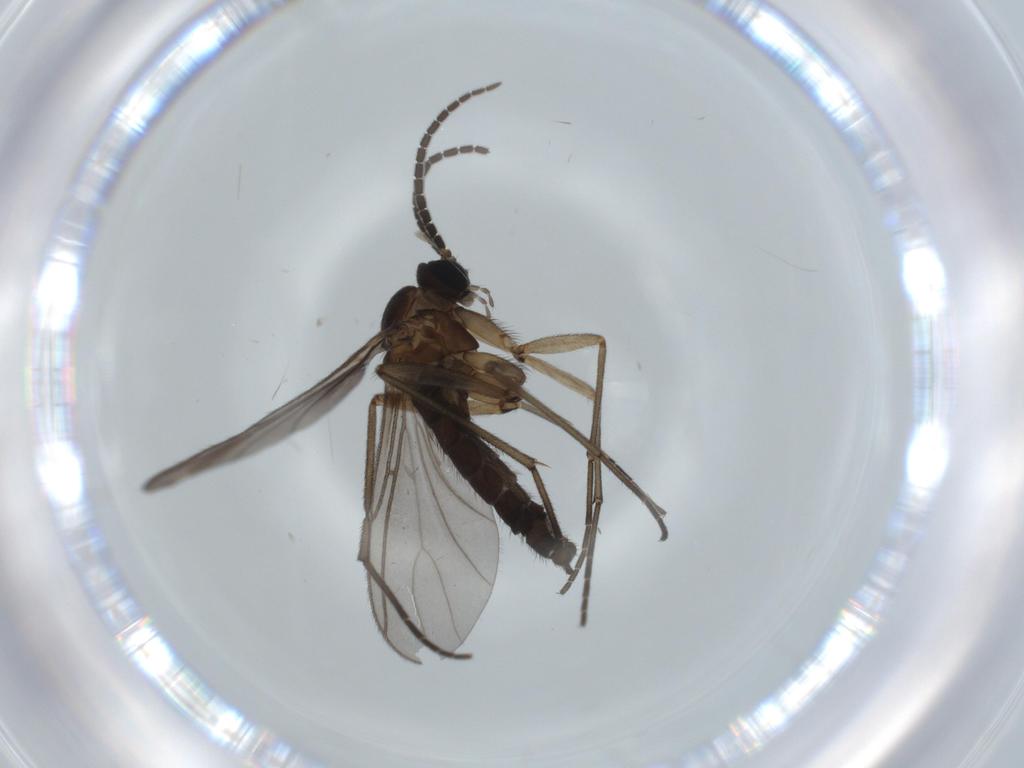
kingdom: Animalia
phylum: Arthropoda
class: Insecta
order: Diptera
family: Sciaridae
